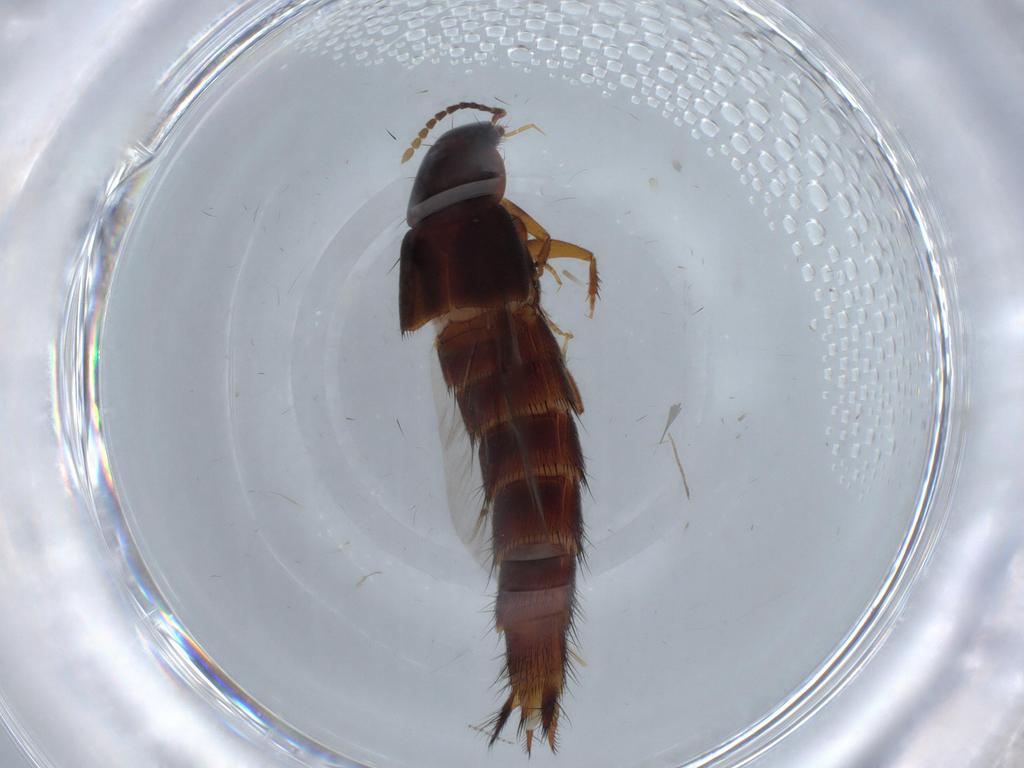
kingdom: Animalia
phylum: Arthropoda
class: Insecta
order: Coleoptera
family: Staphylinidae
